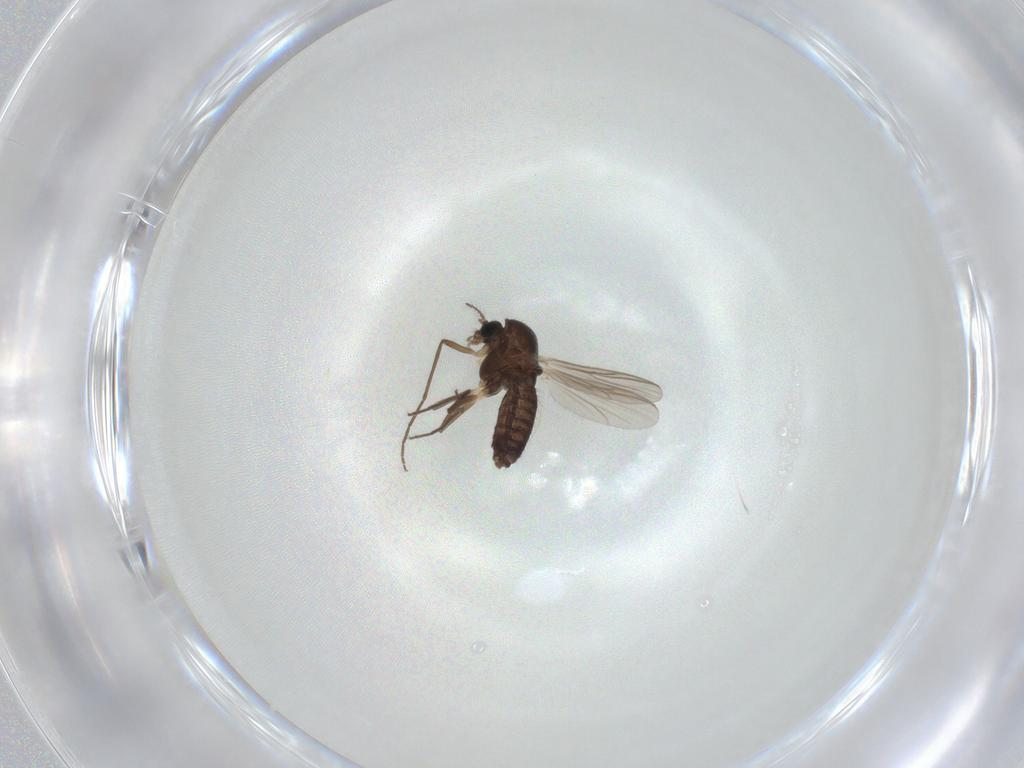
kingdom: Animalia
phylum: Arthropoda
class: Insecta
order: Diptera
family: Chironomidae
